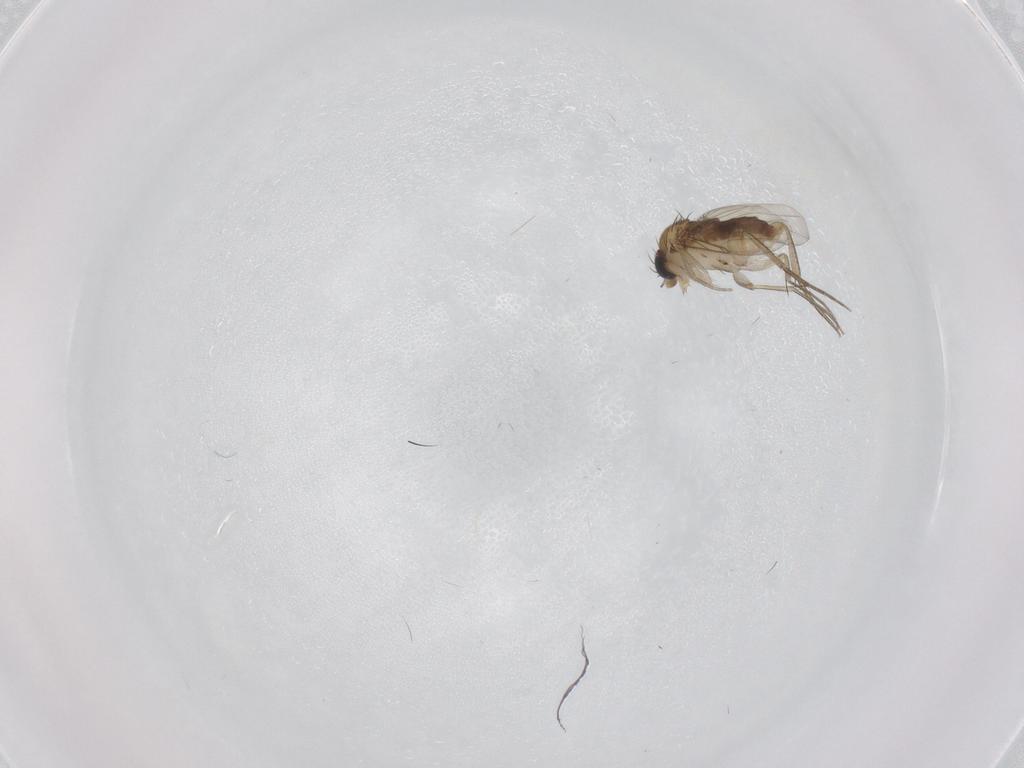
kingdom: Animalia
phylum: Arthropoda
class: Insecta
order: Diptera
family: Phoridae
